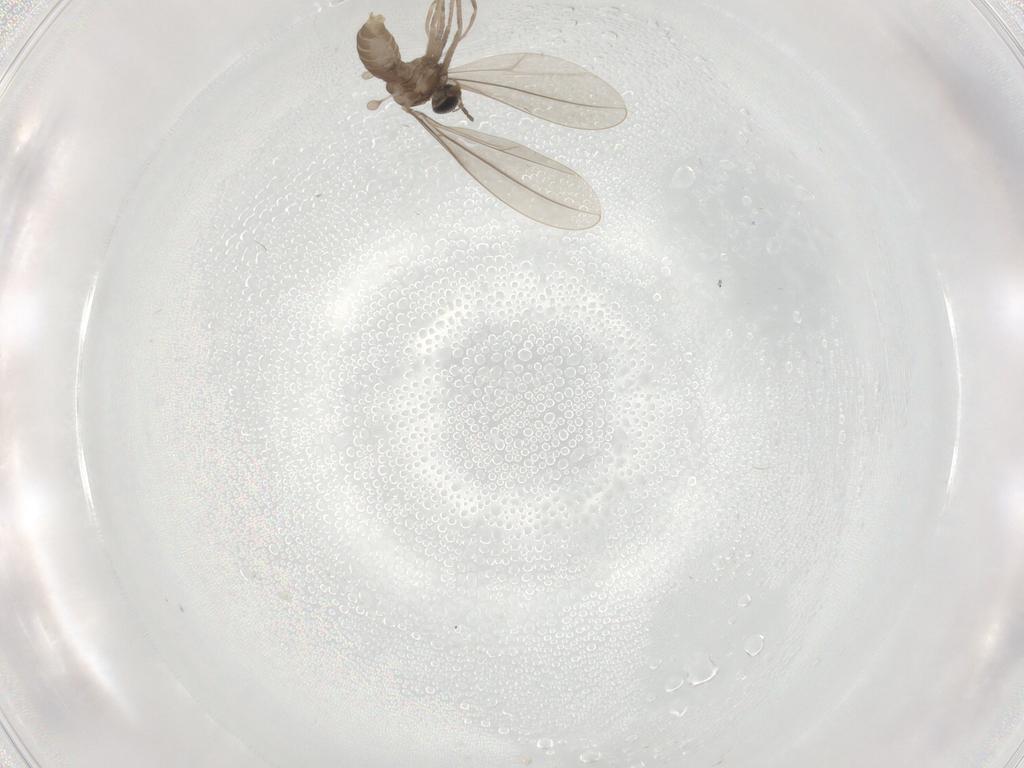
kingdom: Animalia
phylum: Arthropoda
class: Insecta
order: Diptera
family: Cecidomyiidae
